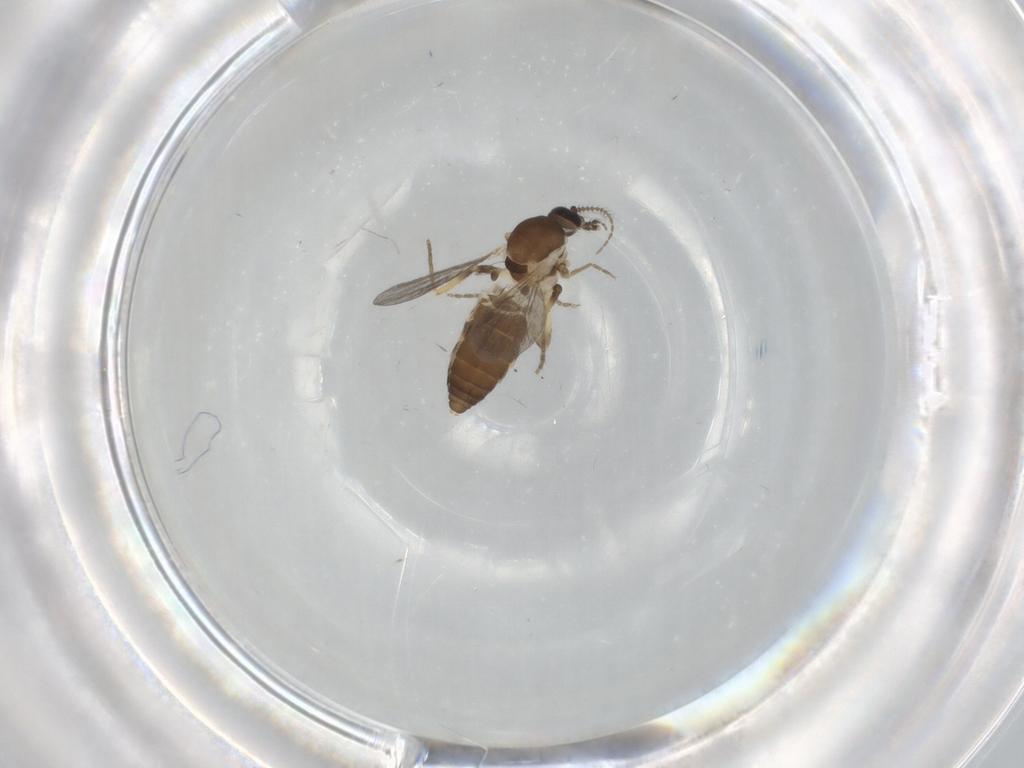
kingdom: Animalia
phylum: Arthropoda
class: Insecta
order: Diptera
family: Ceratopogonidae
